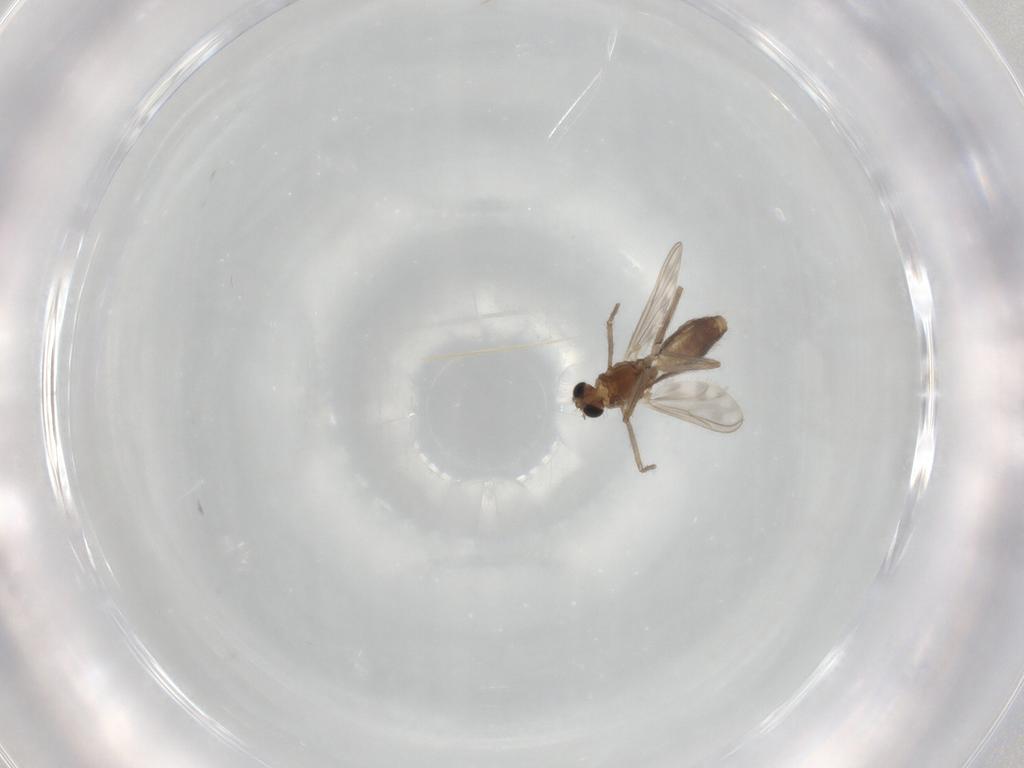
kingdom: Animalia
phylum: Arthropoda
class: Insecta
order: Diptera
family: Chironomidae
